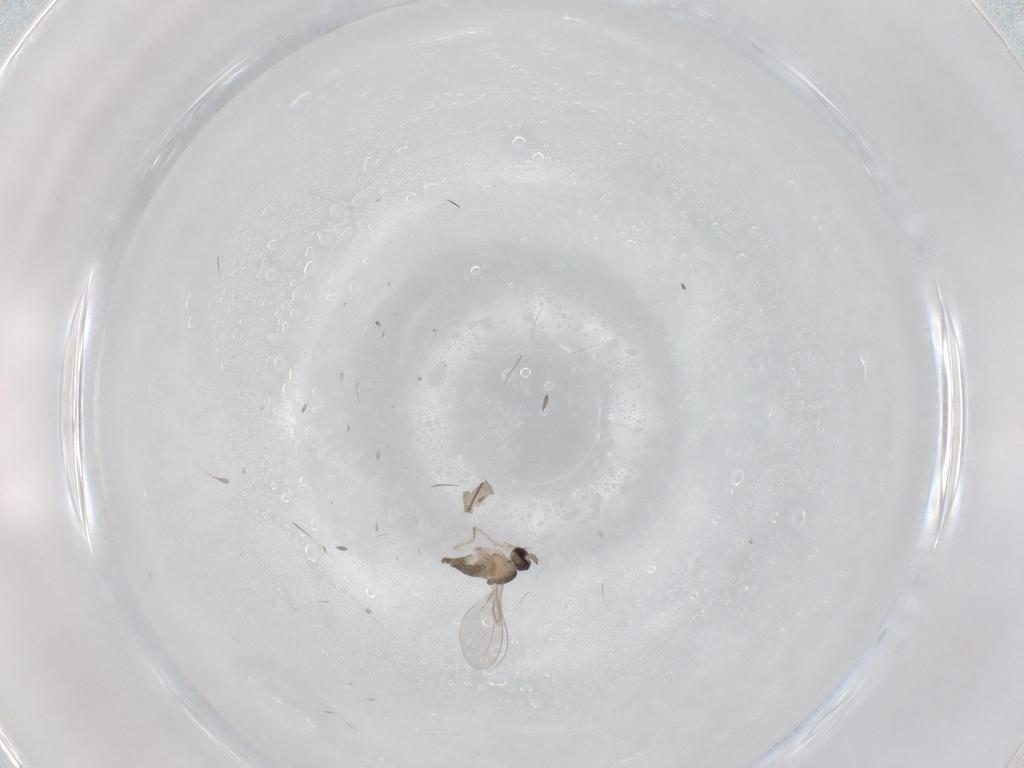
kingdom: Animalia
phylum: Arthropoda
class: Insecta
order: Diptera
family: Cecidomyiidae
